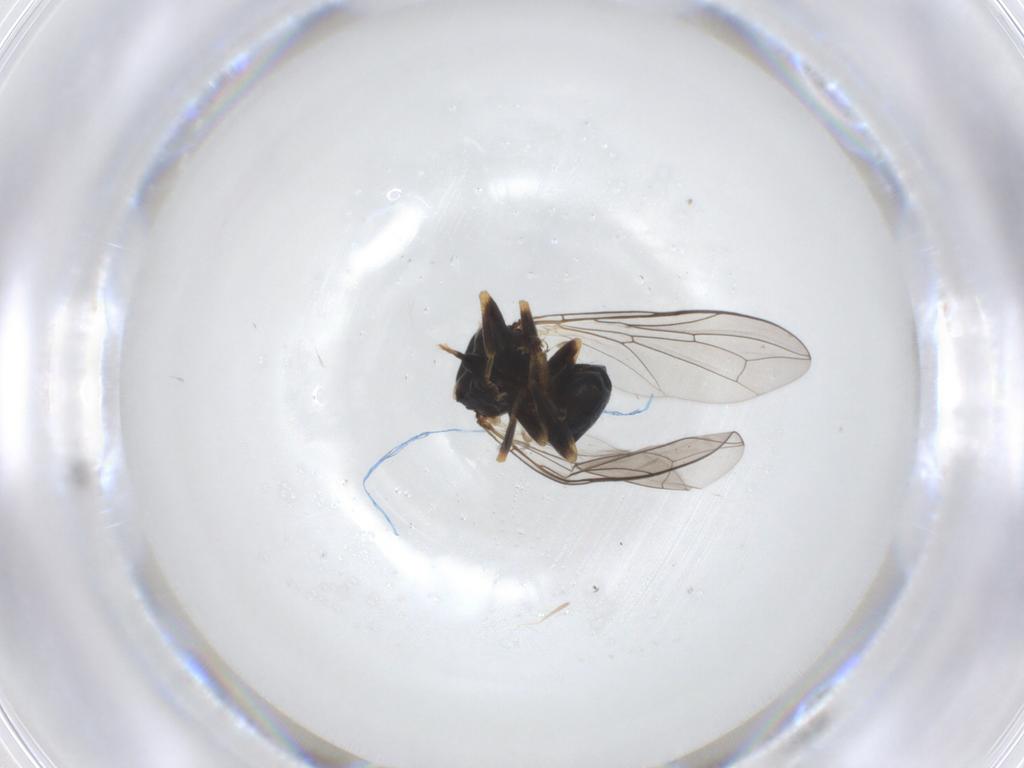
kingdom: Animalia
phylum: Arthropoda
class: Insecta
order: Diptera
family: Pipunculidae
